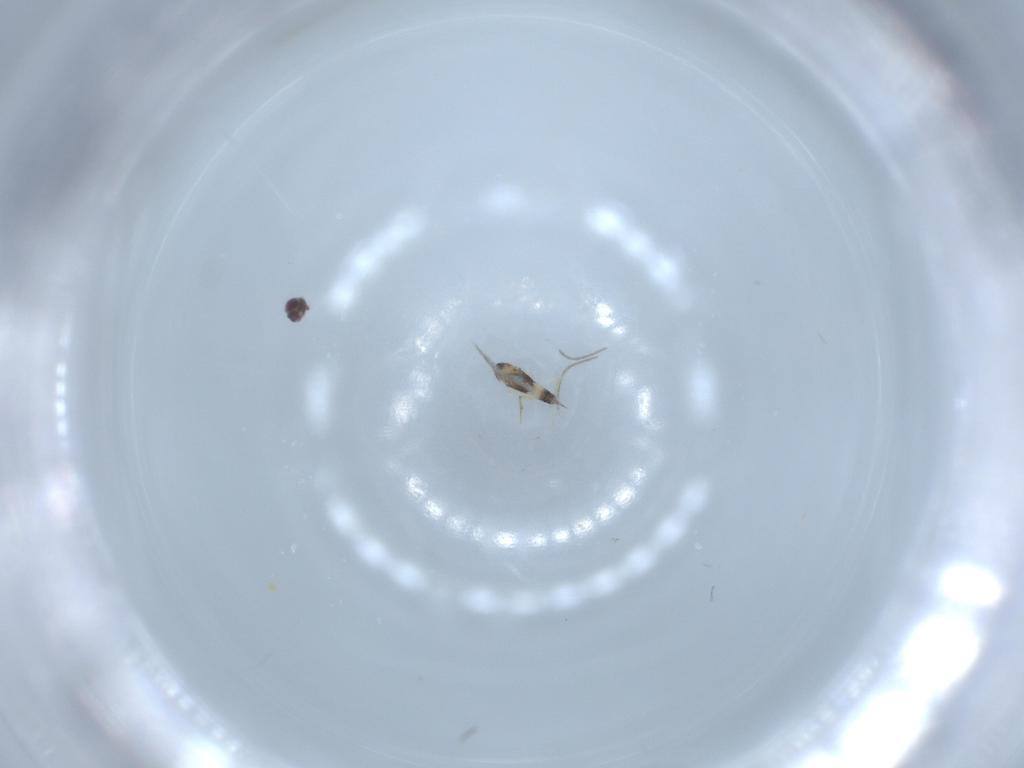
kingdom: Animalia
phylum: Arthropoda
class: Insecta
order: Hymenoptera
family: Mymaridae
